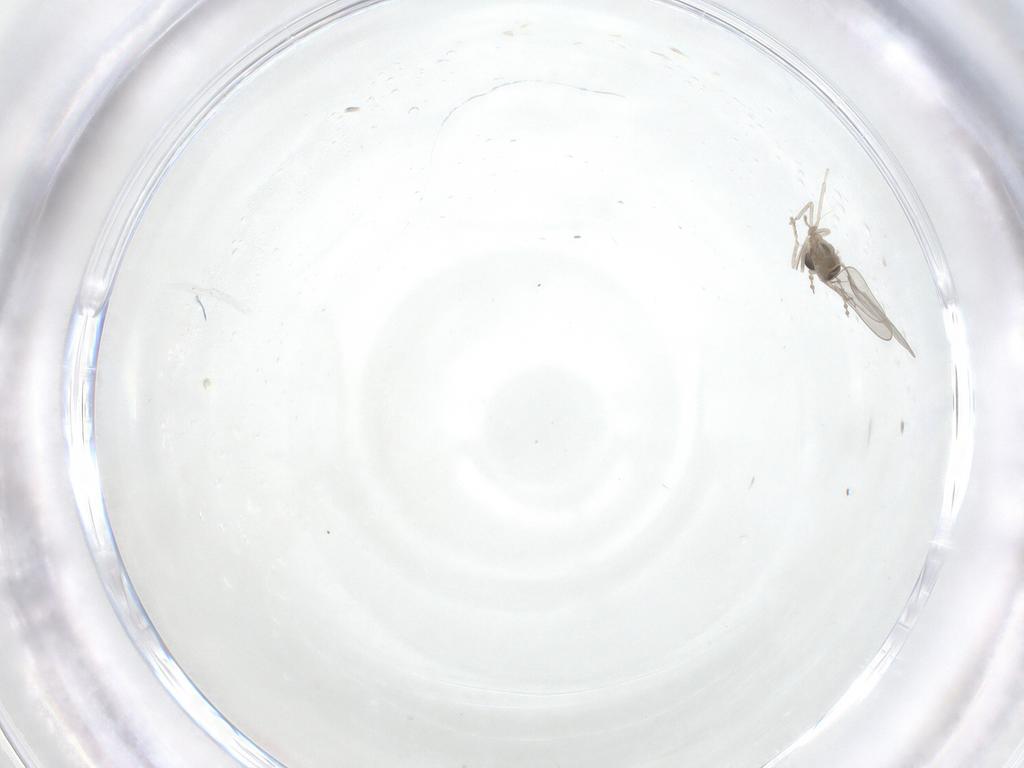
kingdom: Animalia
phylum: Arthropoda
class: Insecta
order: Diptera
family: Cecidomyiidae
